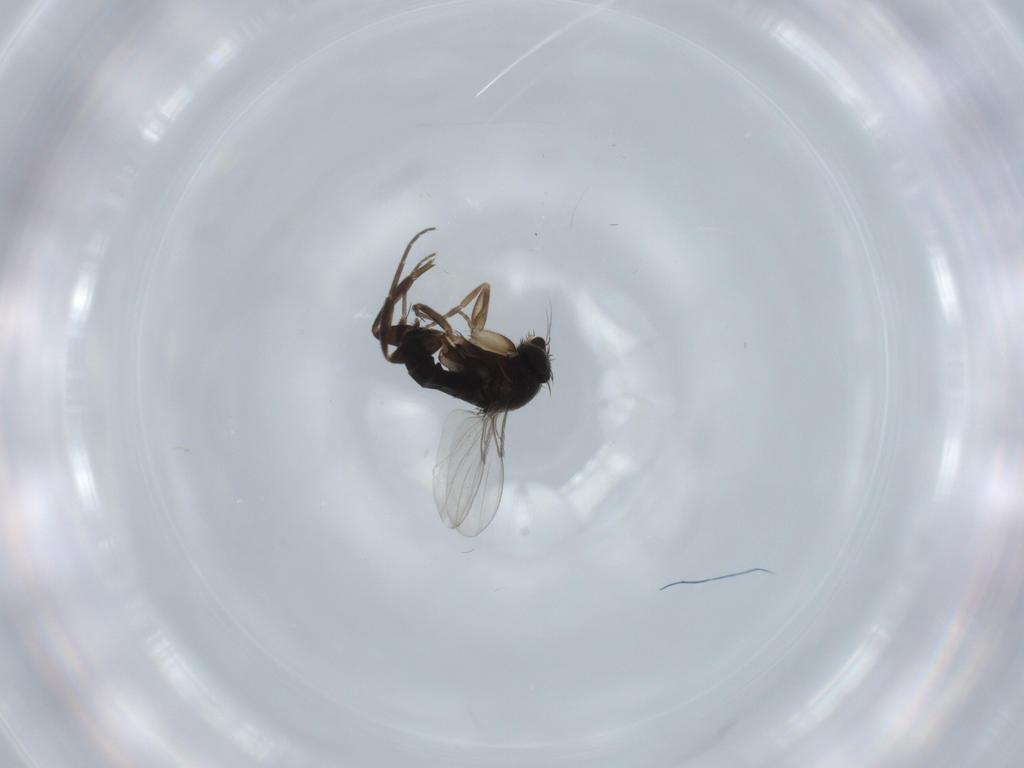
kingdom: Animalia
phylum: Arthropoda
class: Insecta
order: Diptera
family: Phoridae
